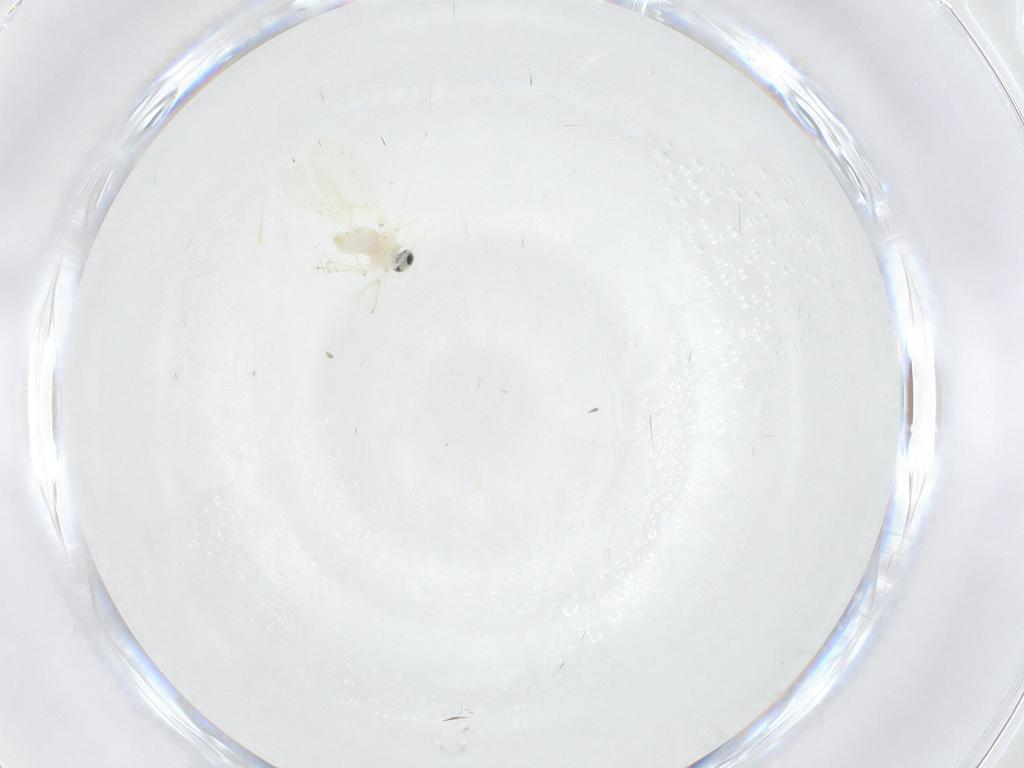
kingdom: Animalia
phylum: Arthropoda
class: Insecta
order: Diptera
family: Cecidomyiidae
